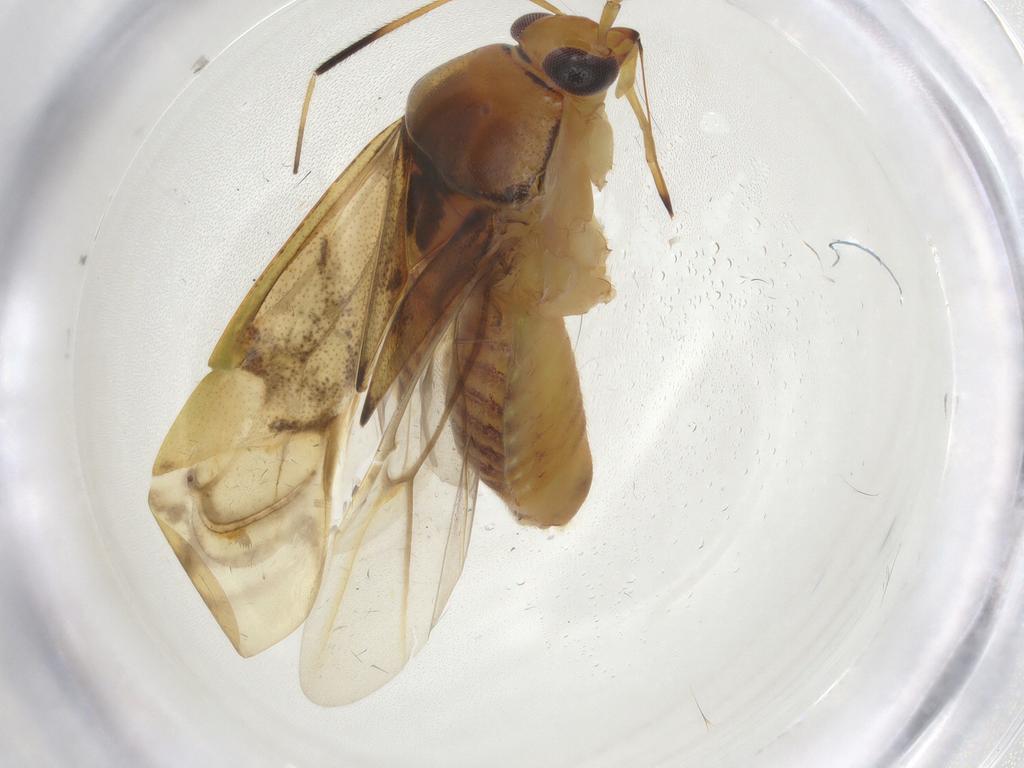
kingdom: Animalia
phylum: Arthropoda
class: Insecta
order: Hemiptera
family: Miridae
